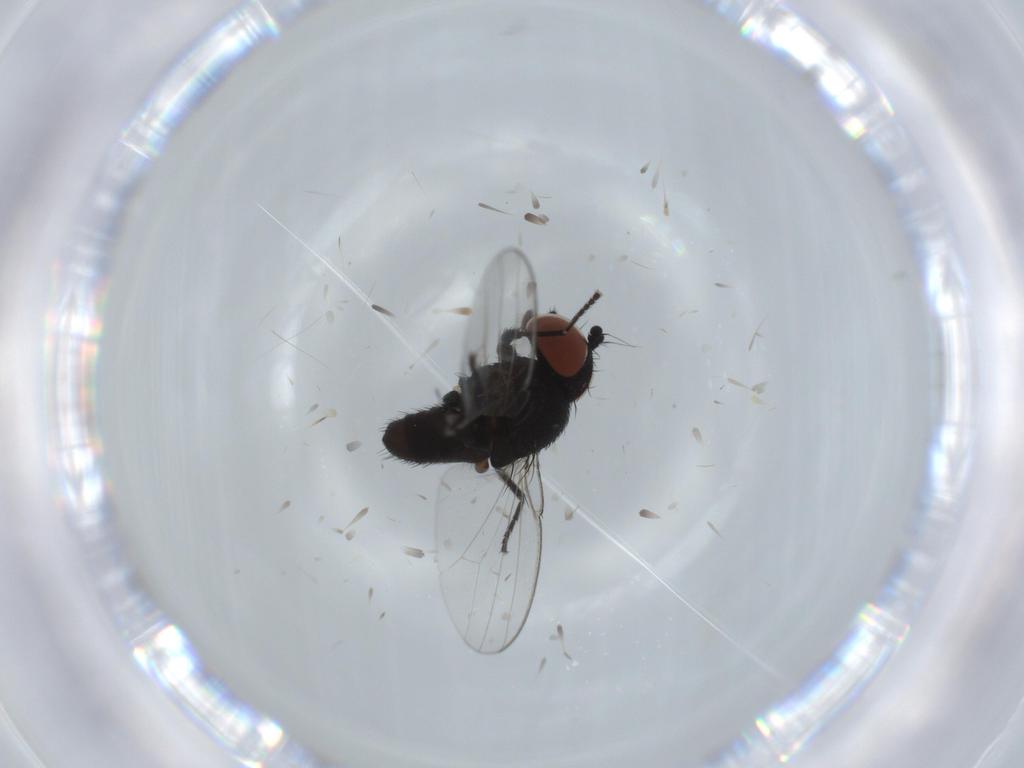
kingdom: Animalia
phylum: Arthropoda
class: Insecta
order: Diptera
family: Milichiidae
